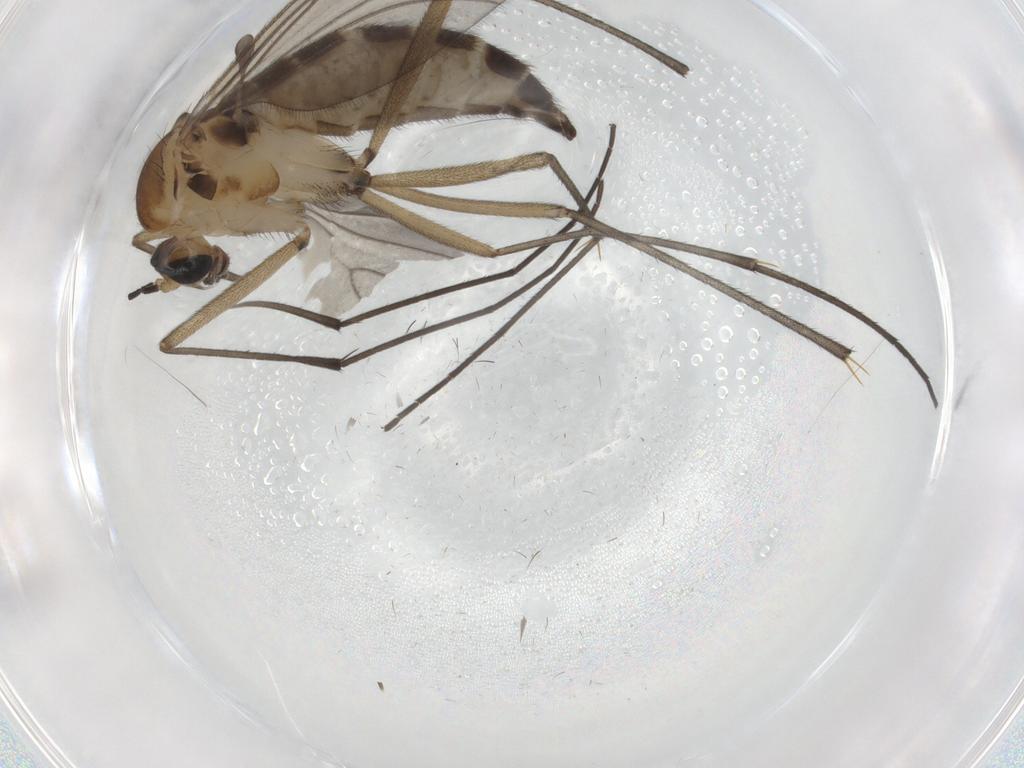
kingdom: Animalia
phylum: Arthropoda
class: Insecta
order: Diptera
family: Sciaridae
